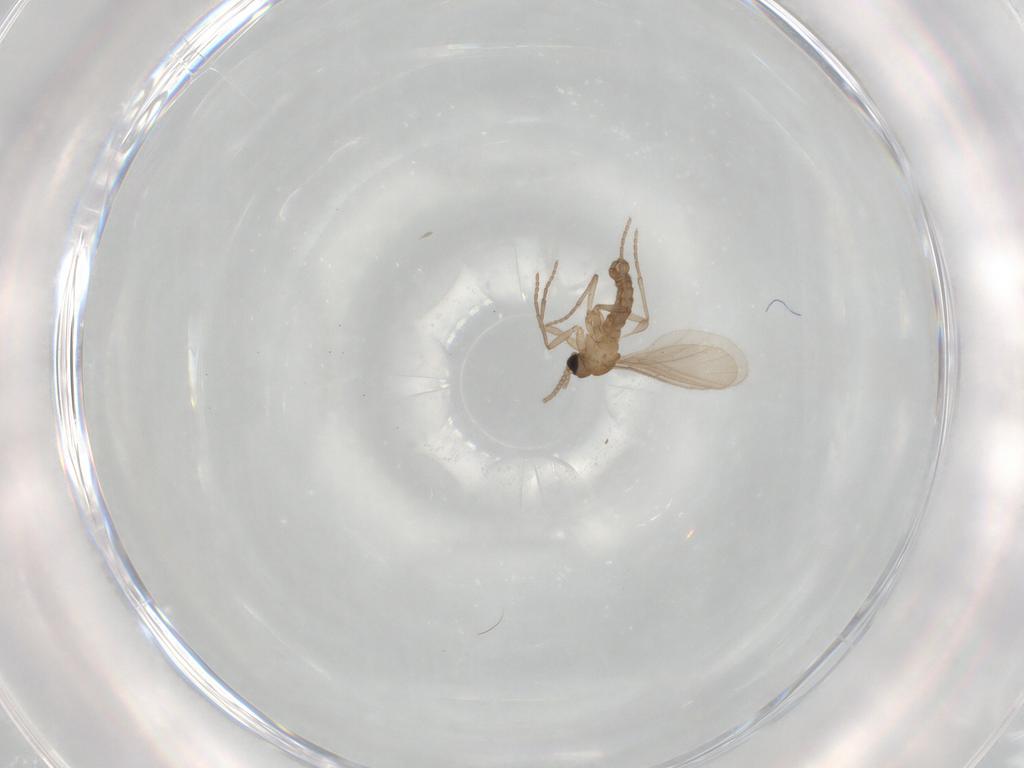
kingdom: Animalia
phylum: Arthropoda
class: Insecta
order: Diptera
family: Sciaridae
